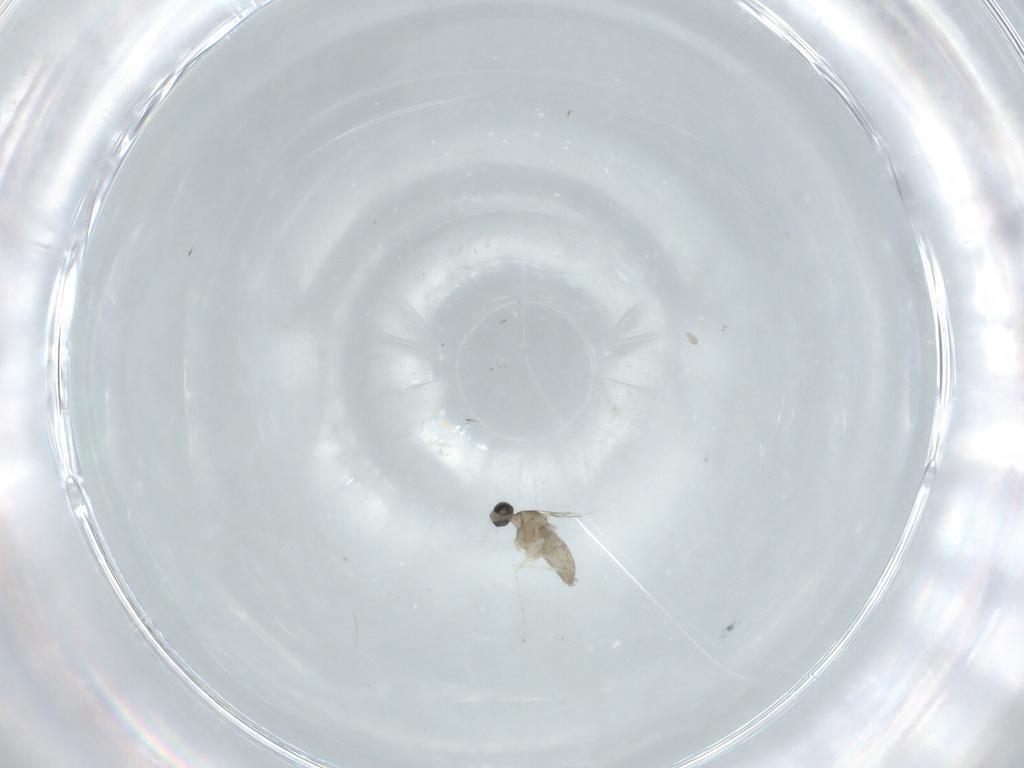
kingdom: Animalia
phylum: Arthropoda
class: Insecta
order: Diptera
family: Cecidomyiidae
